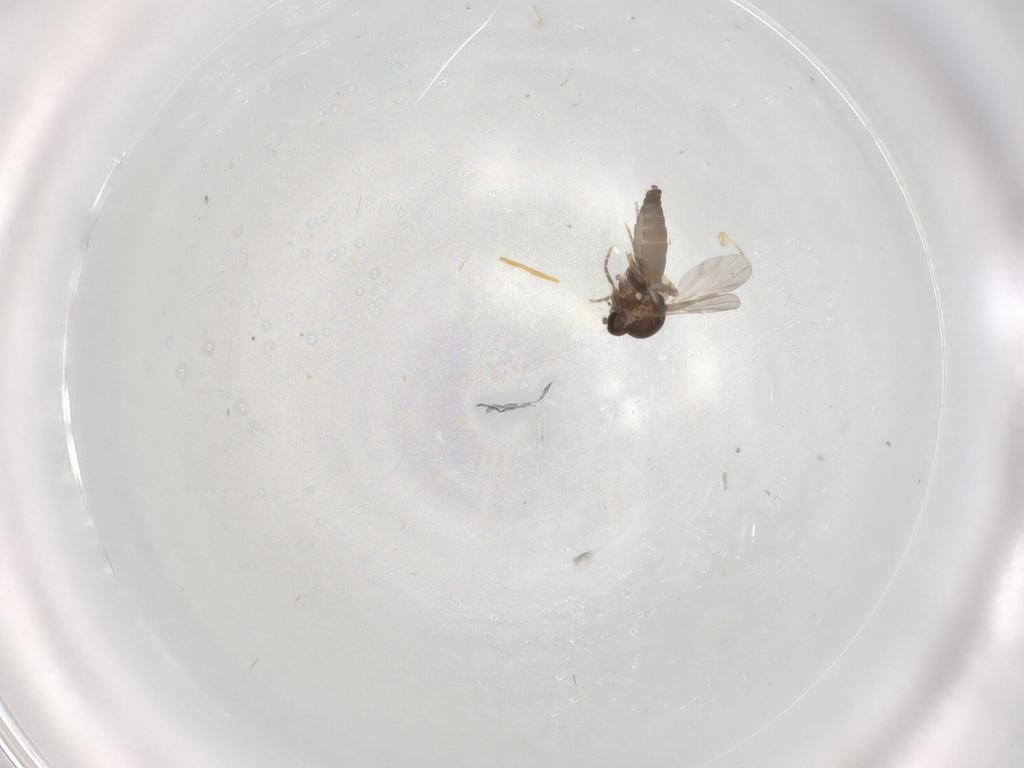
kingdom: Animalia
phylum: Arthropoda
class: Insecta
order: Diptera
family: Ceratopogonidae
